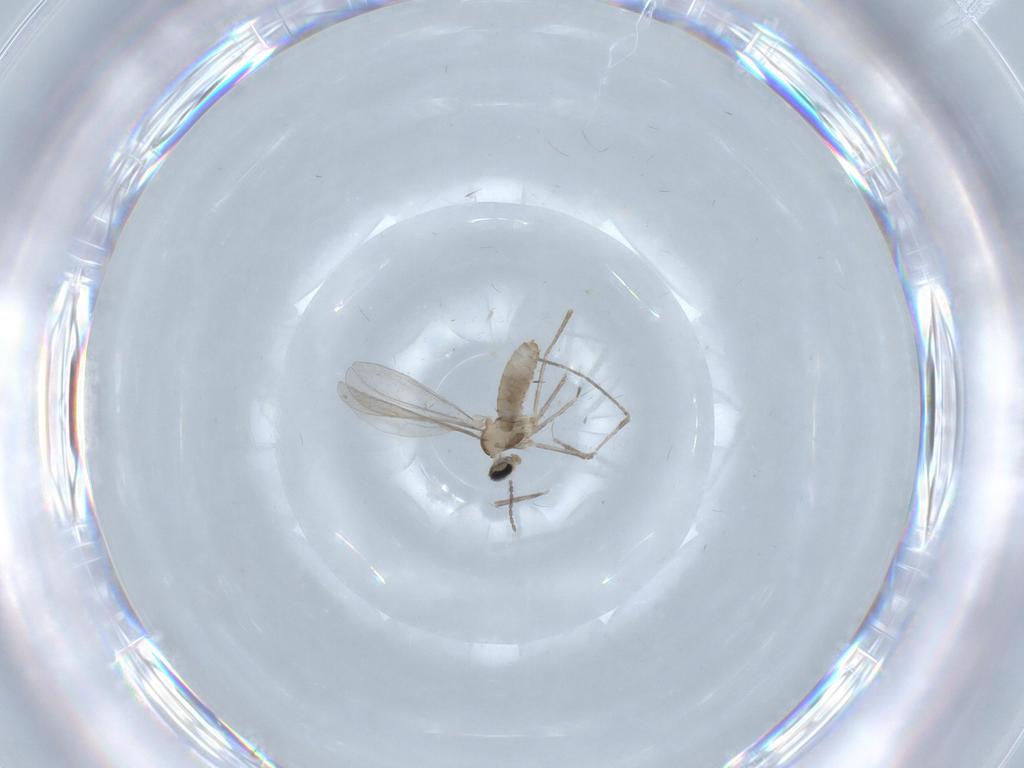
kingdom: Animalia
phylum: Arthropoda
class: Insecta
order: Diptera
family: Cecidomyiidae
